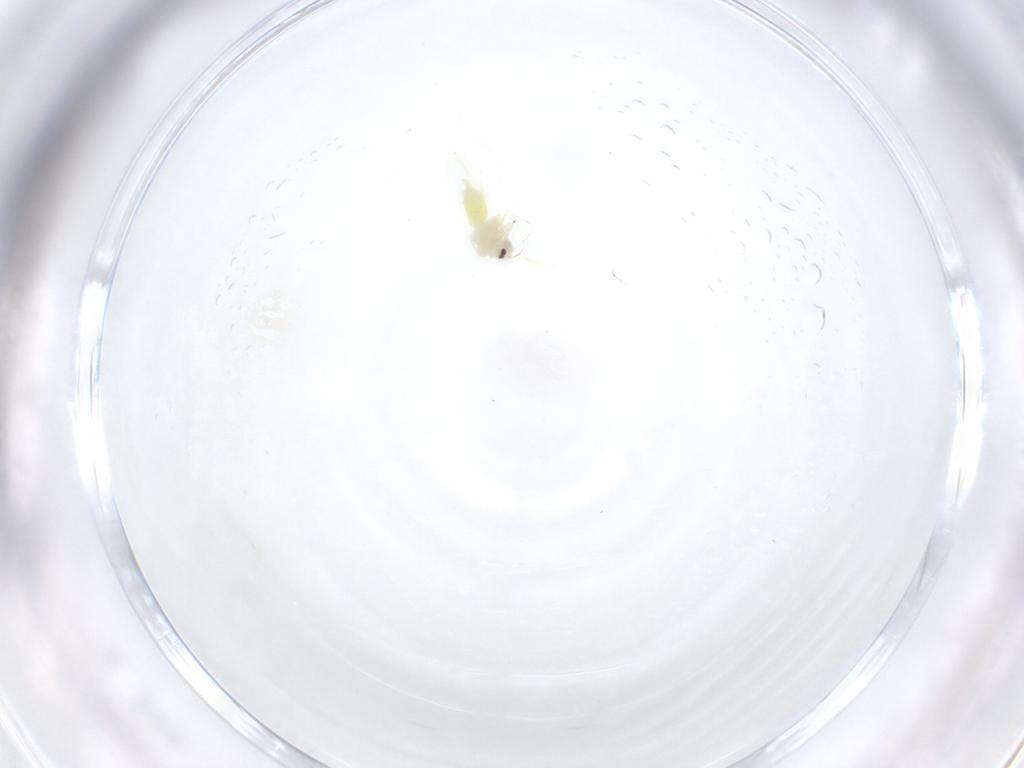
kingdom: Animalia
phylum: Arthropoda
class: Insecta
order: Hemiptera
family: Aleyrodidae
